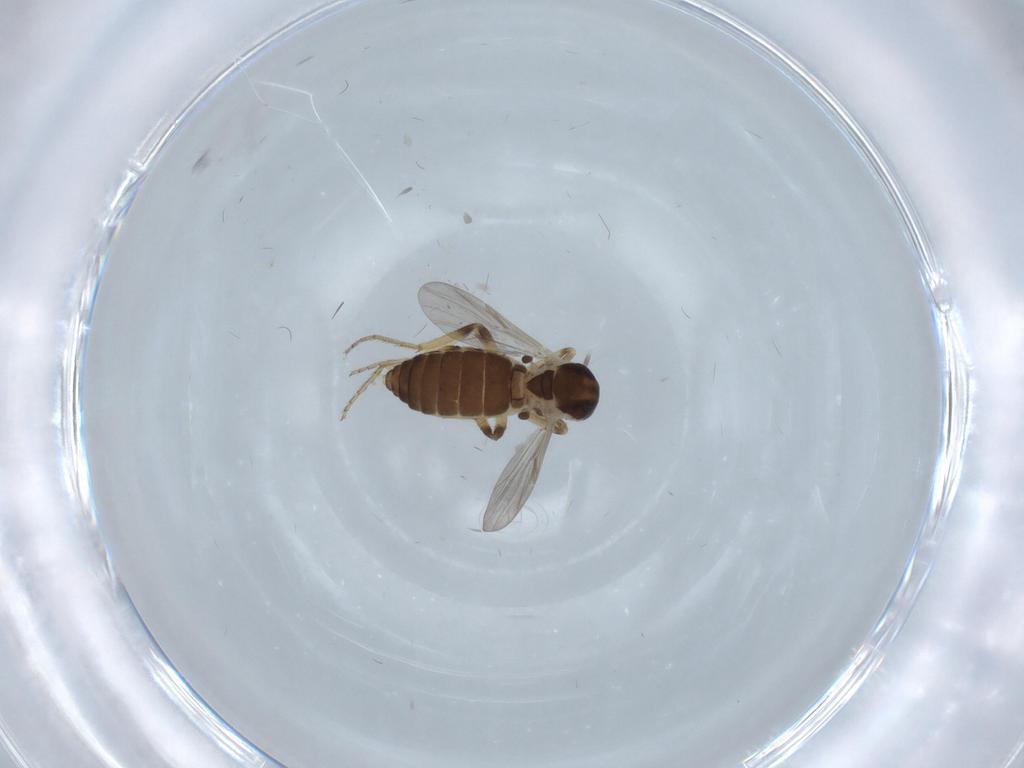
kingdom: Animalia
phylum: Arthropoda
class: Insecta
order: Diptera
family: Ceratopogonidae
